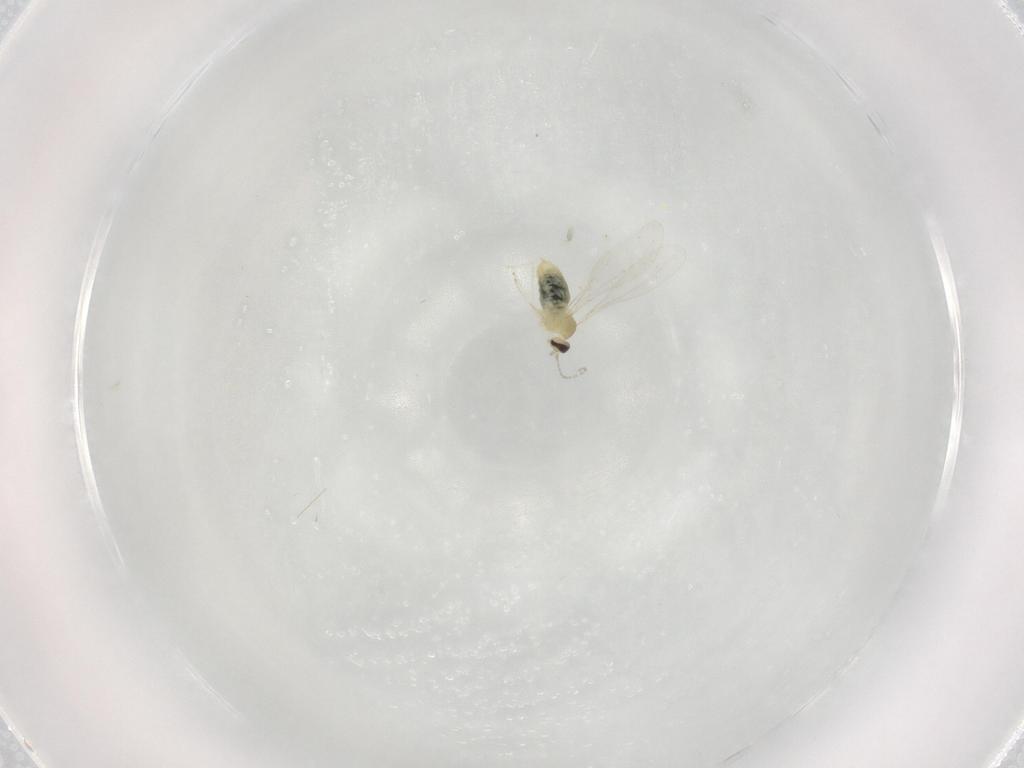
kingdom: Animalia
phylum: Arthropoda
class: Insecta
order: Diptera
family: Cecidomyiidae
